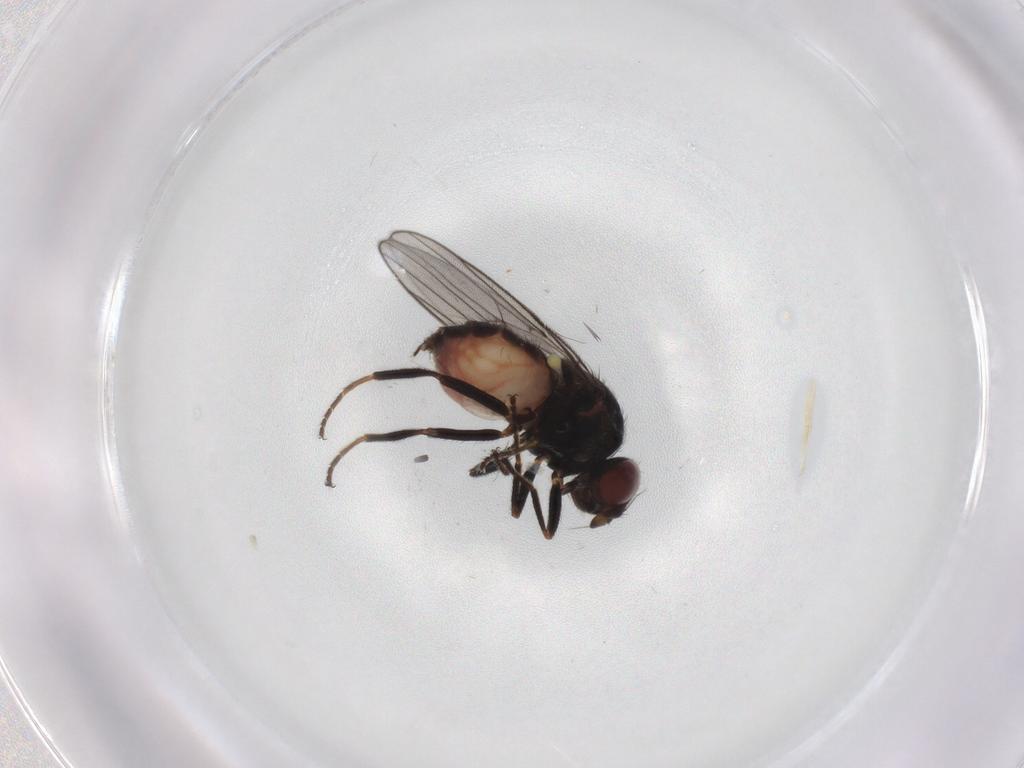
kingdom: Animalia
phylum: Arthropoda
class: Insecta
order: Diptera
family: Chloropidae
